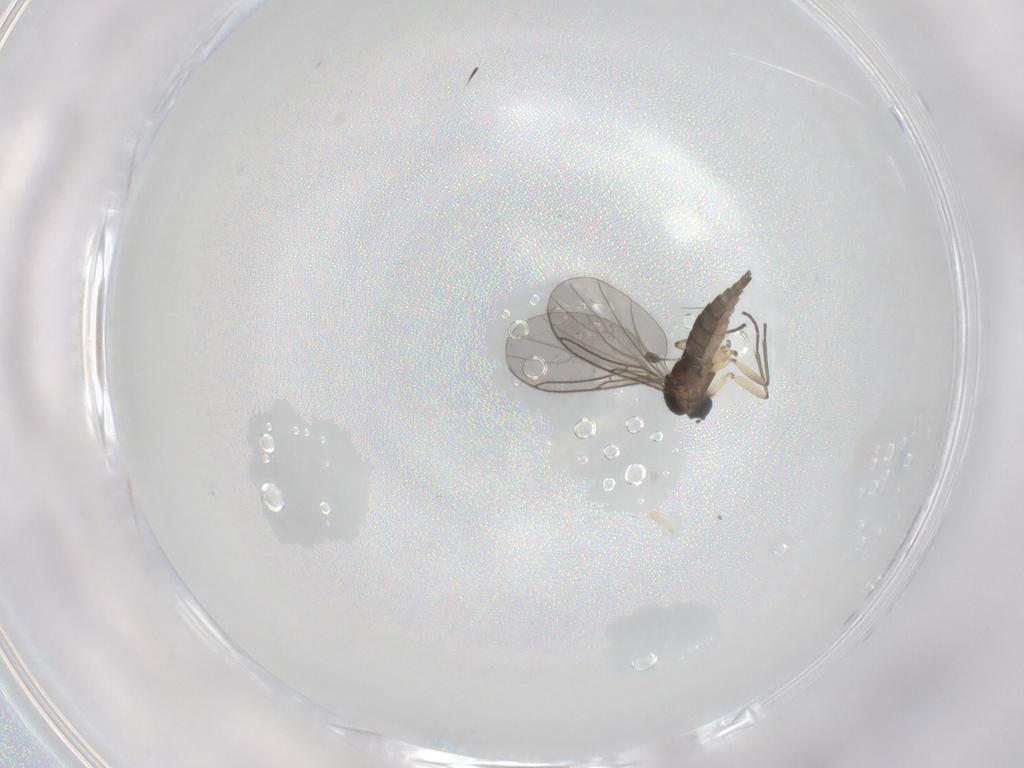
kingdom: Animalia
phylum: Arthropoda
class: Insecta
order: Diptera
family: Sciaridae
